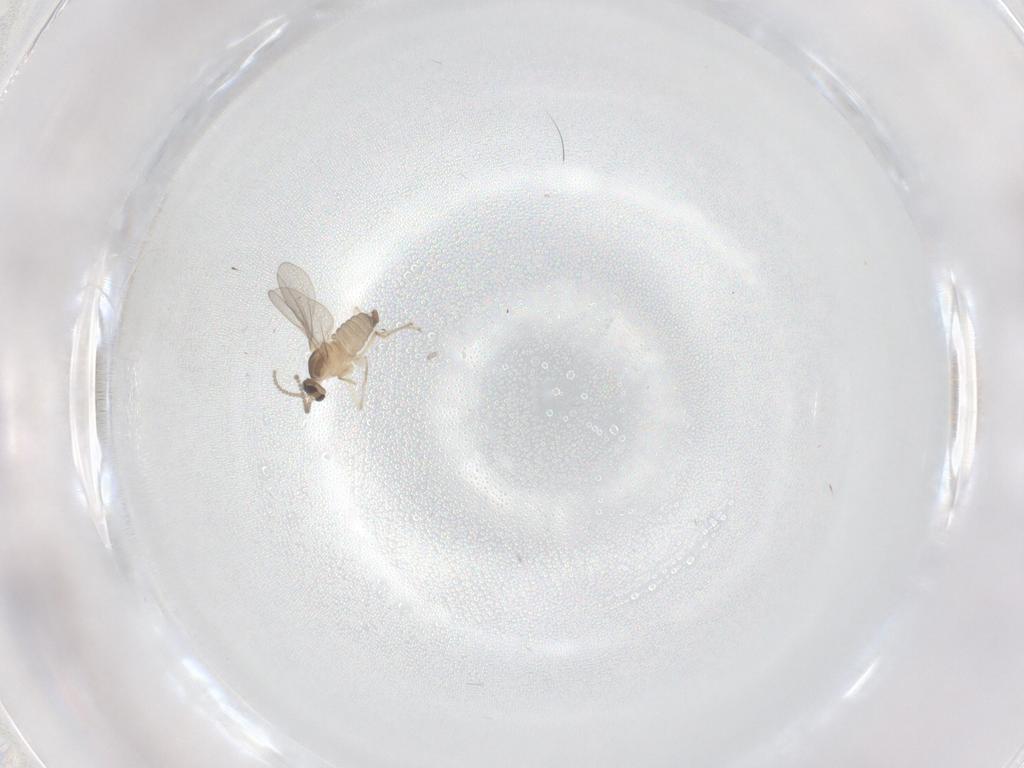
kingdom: Animalia
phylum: Arthropoda
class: Insecta
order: Diptera
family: Cecidomyiidae
